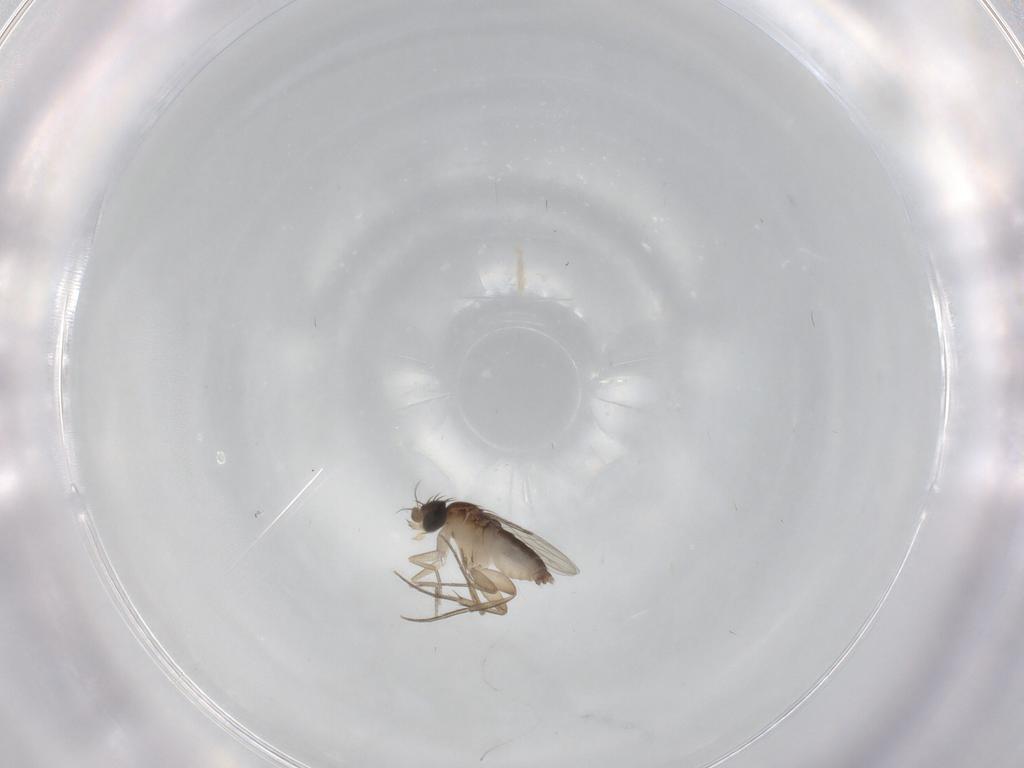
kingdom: Animalia
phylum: Arthropoda
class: Insecta
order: Diptera
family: Phoridae
